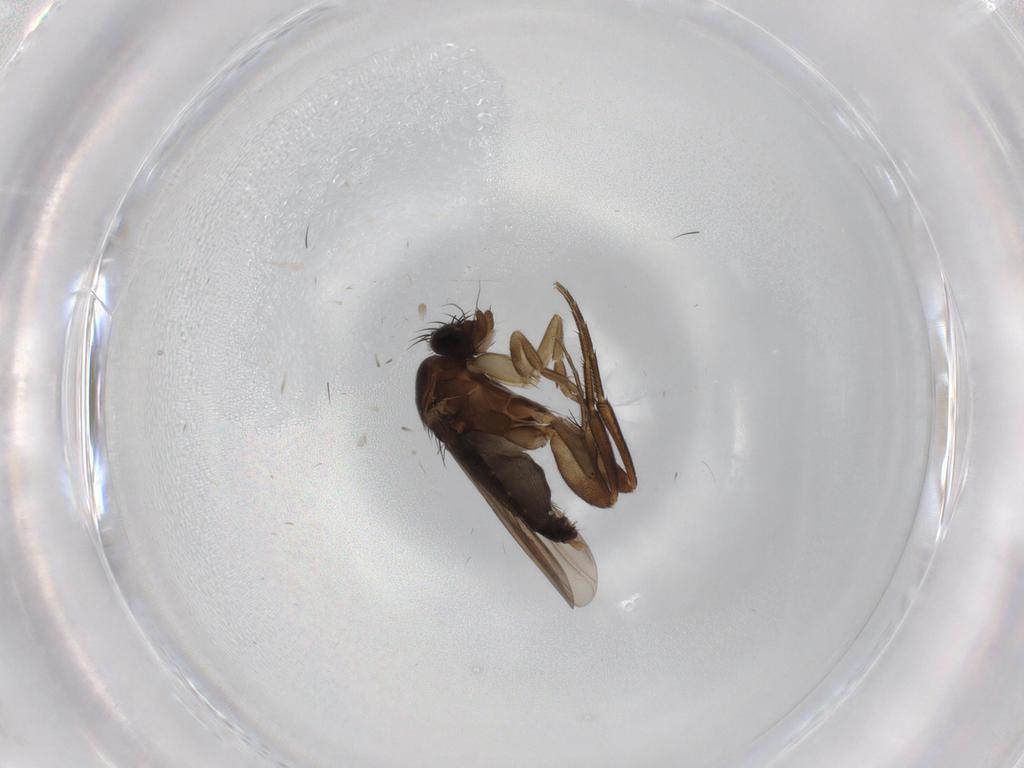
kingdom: Animalia
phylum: Arthropoda
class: Insecta
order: Diptera
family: Phoridae
